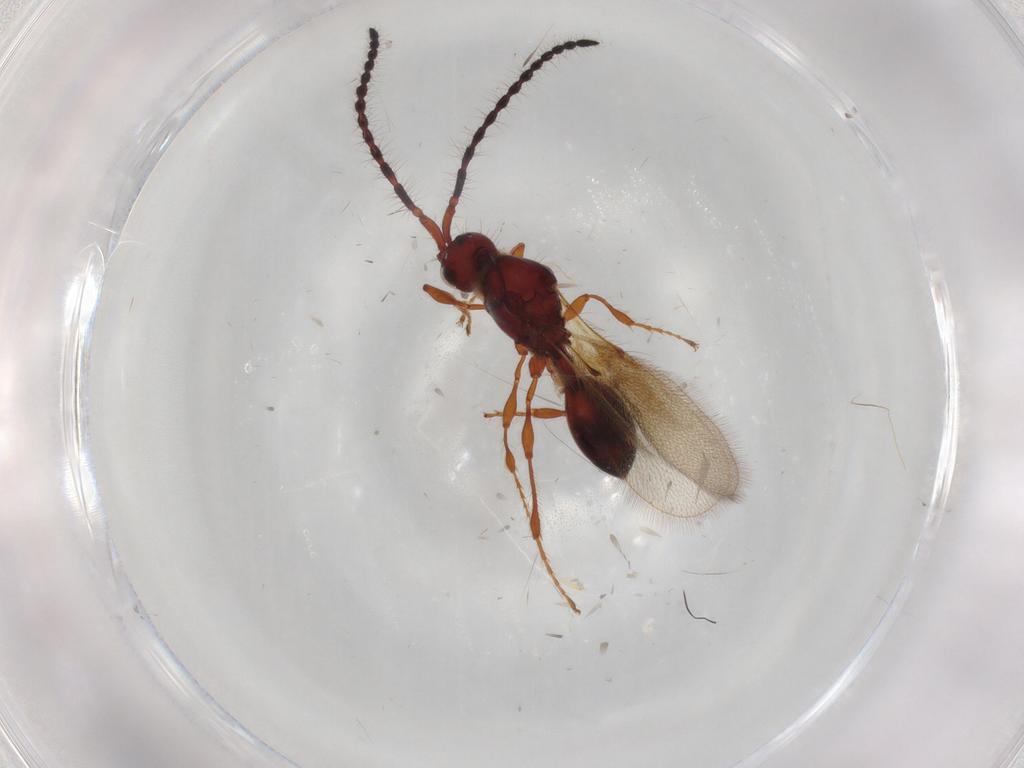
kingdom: Animalia
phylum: Arthropoda
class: Insecta
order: Hymenoptera
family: Diapriidae
